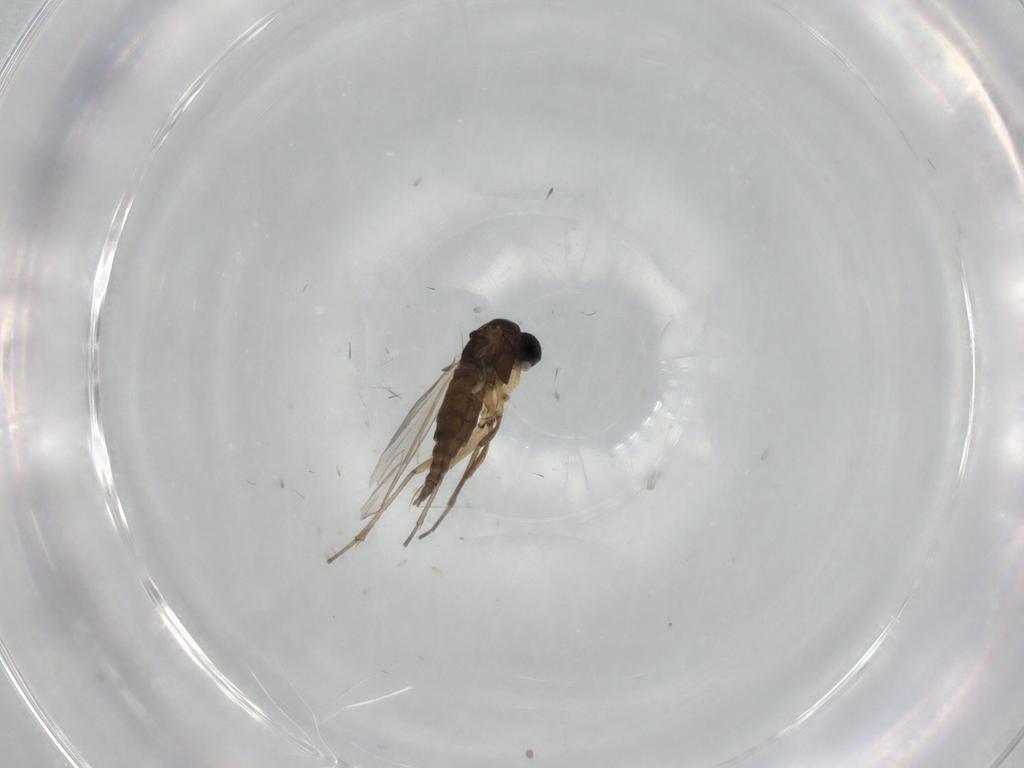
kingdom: Animalia
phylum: Arthropoda
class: Insecta
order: Diptera
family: Sciaridae
